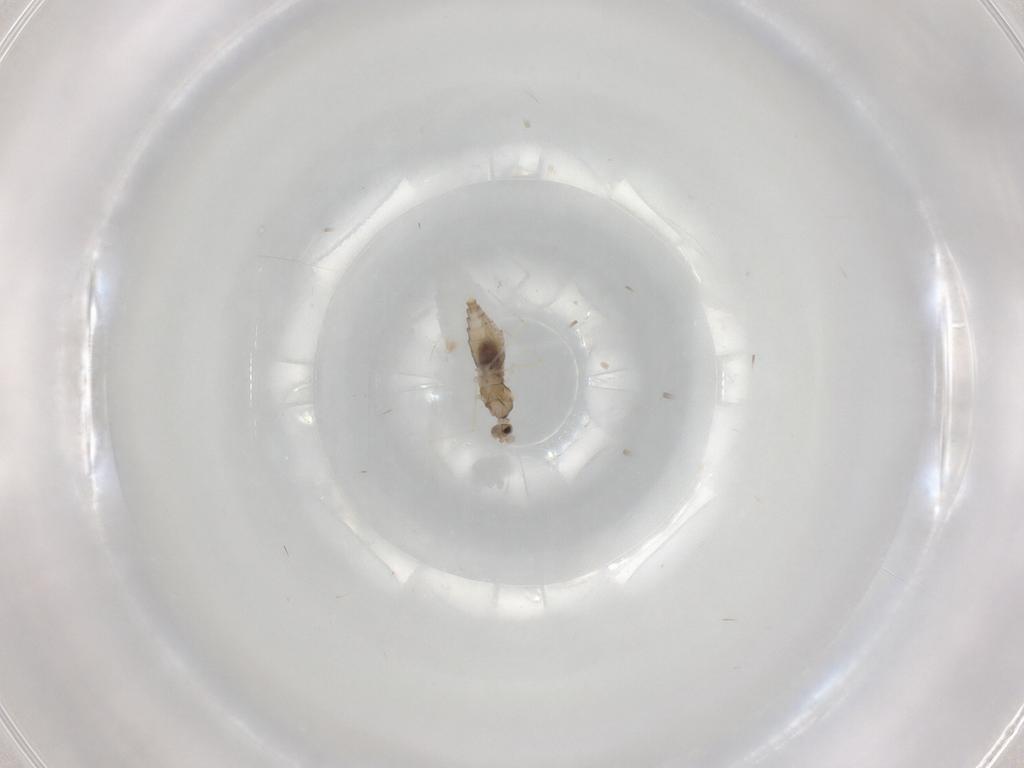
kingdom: Animalia
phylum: Arthropoda
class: Insecta
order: Diptera
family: Cecidomyiidae
